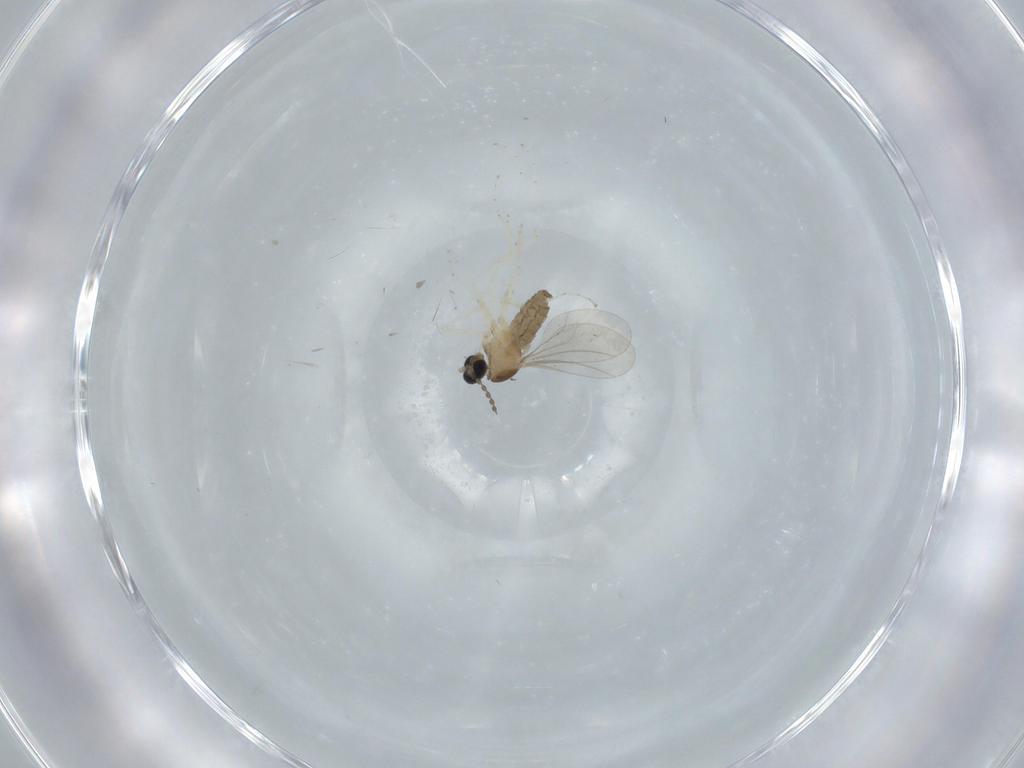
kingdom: Animalia
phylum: Arthropoda
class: Insecta
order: Diptera
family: Cecidomyiidae
